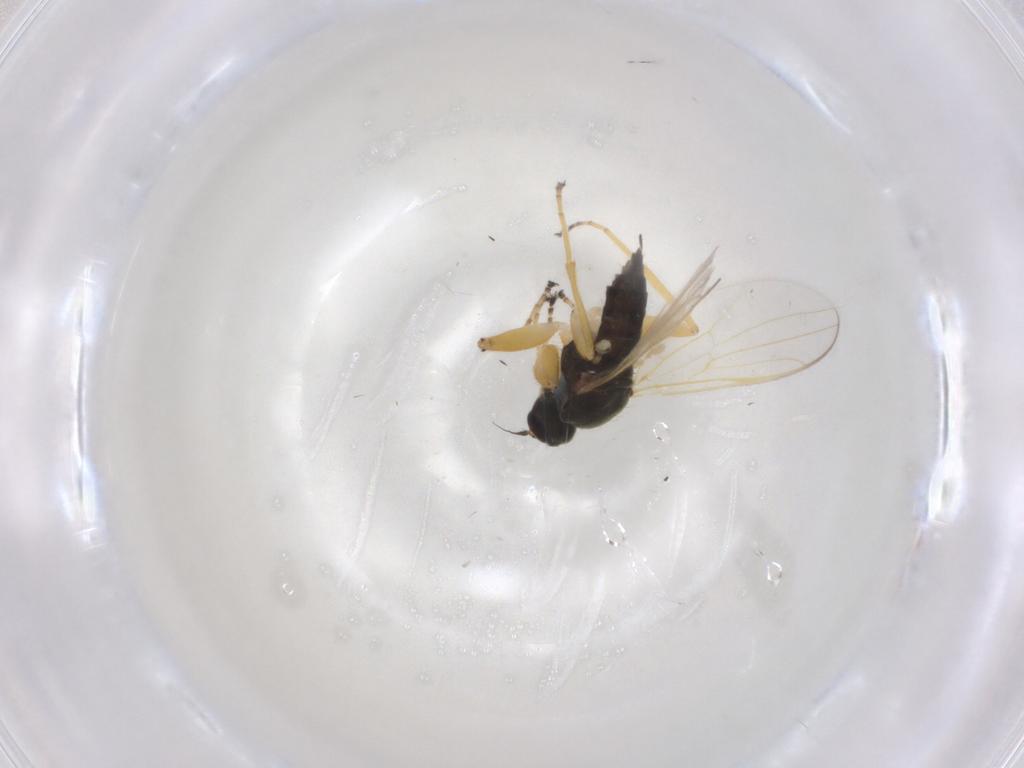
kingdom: Animalia
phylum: Arthropoda
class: Insecta
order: Diptera
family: Hybotidae
